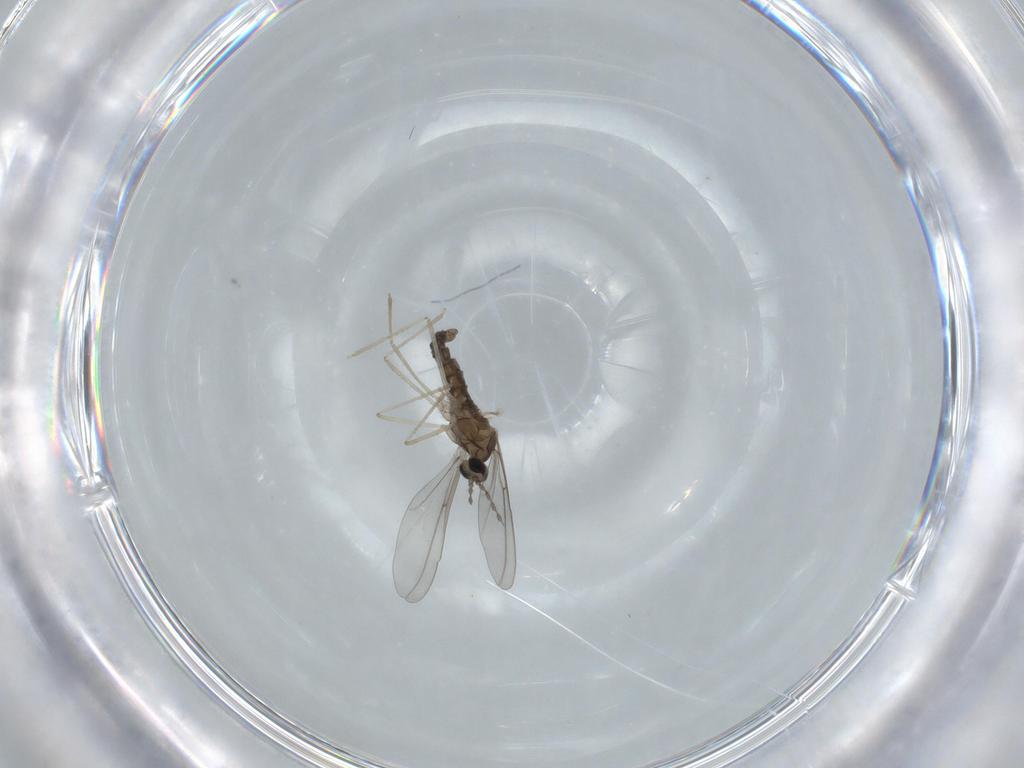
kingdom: Animalia
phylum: Arthropoda
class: Insecta
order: Diptera
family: Cecidomyiidae
